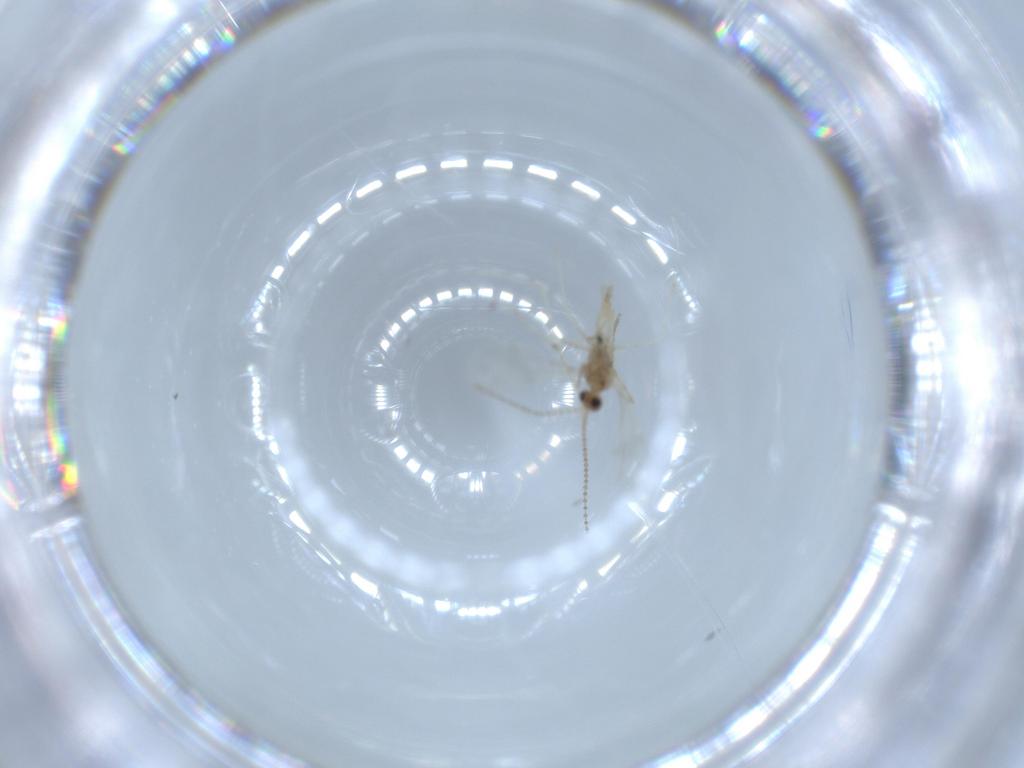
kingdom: Animalia
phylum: Arthropoda
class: Insecta
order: Diptera
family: Cecidomyiidae
